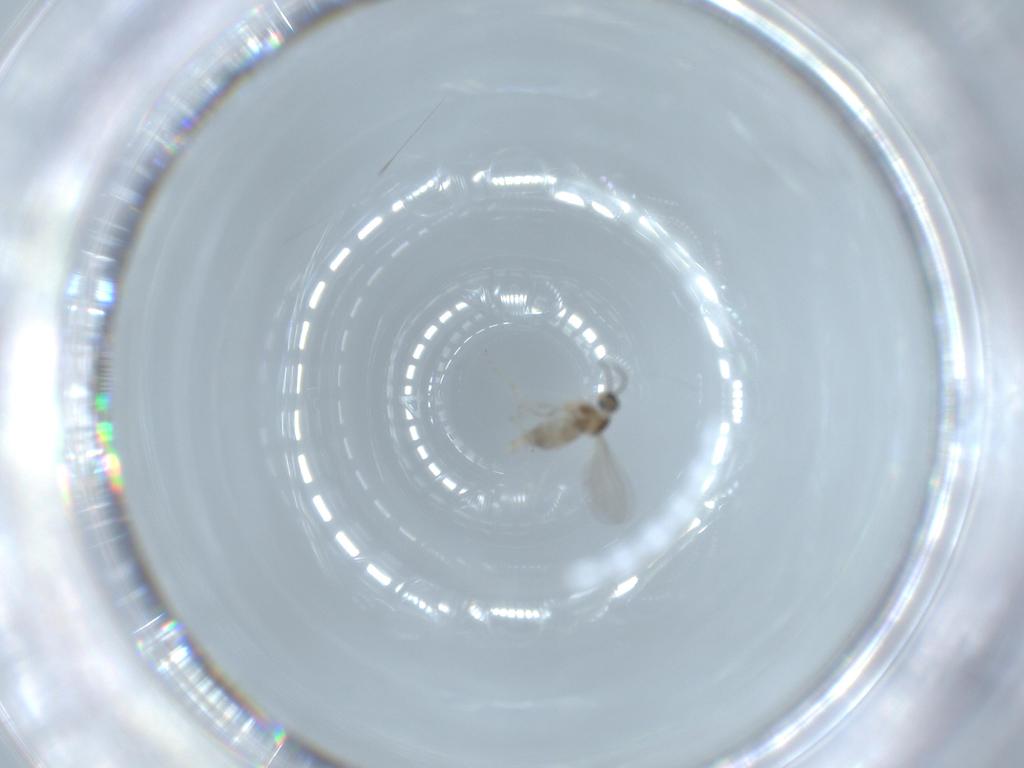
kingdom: Animalia
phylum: Arthropoda
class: Insecta
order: Diptera
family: Cecidomyiidae
